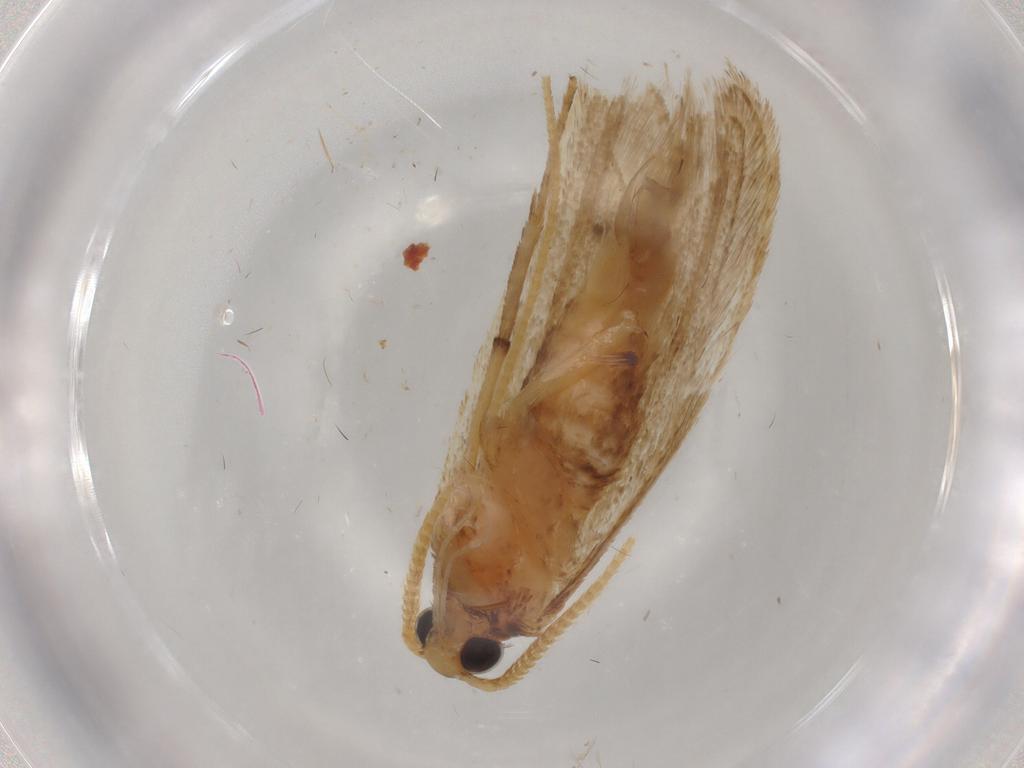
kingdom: Animalia
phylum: Arthropoda
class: Insecta
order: Lepidoptera
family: Lecithoceridae
